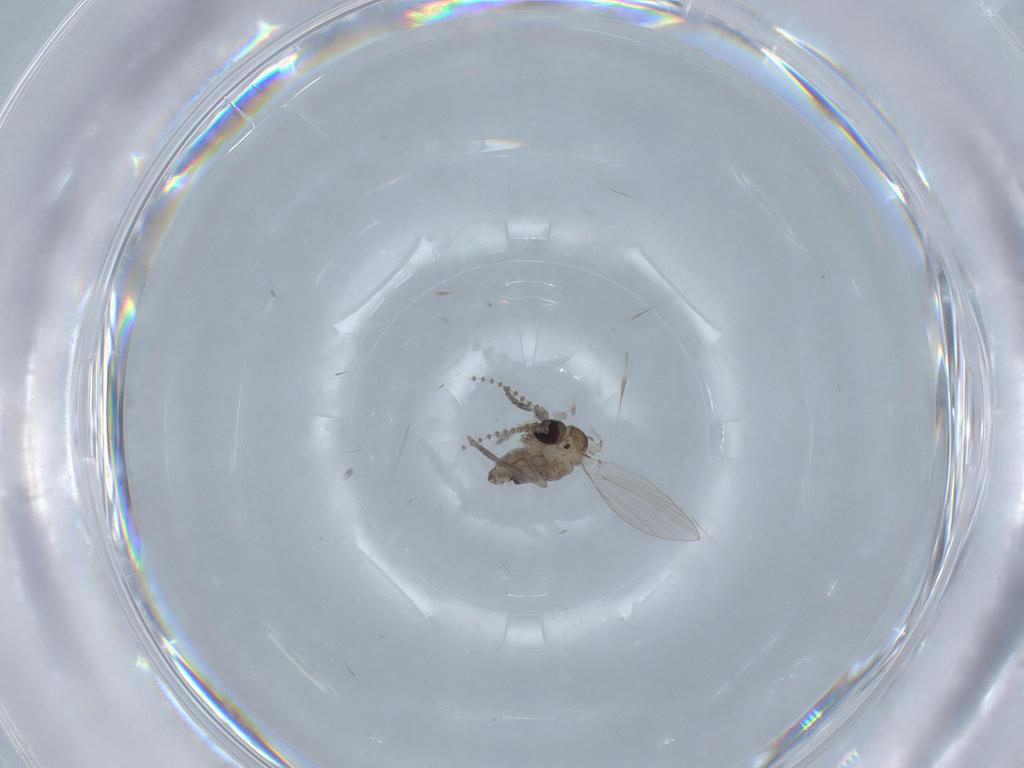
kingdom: Animalia
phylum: Arthropoda
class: Insecta
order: Diptera
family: Psychodidae
